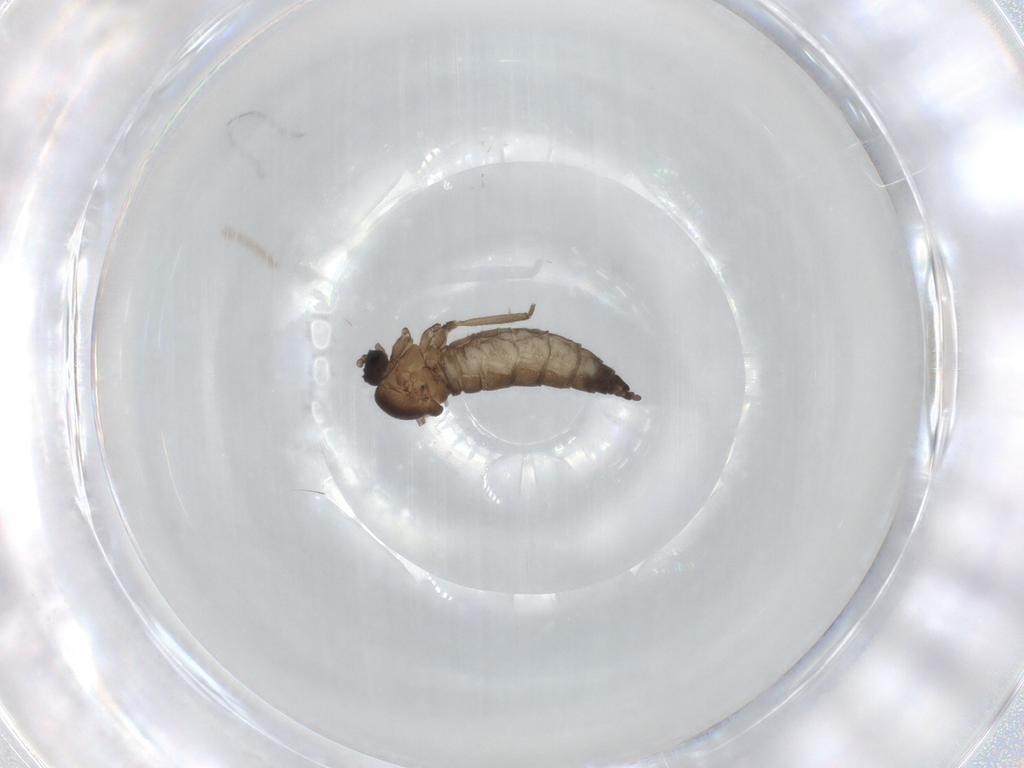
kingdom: Animalia
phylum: Arthropoda
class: Insecta
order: Diptera
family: Sciaridae
